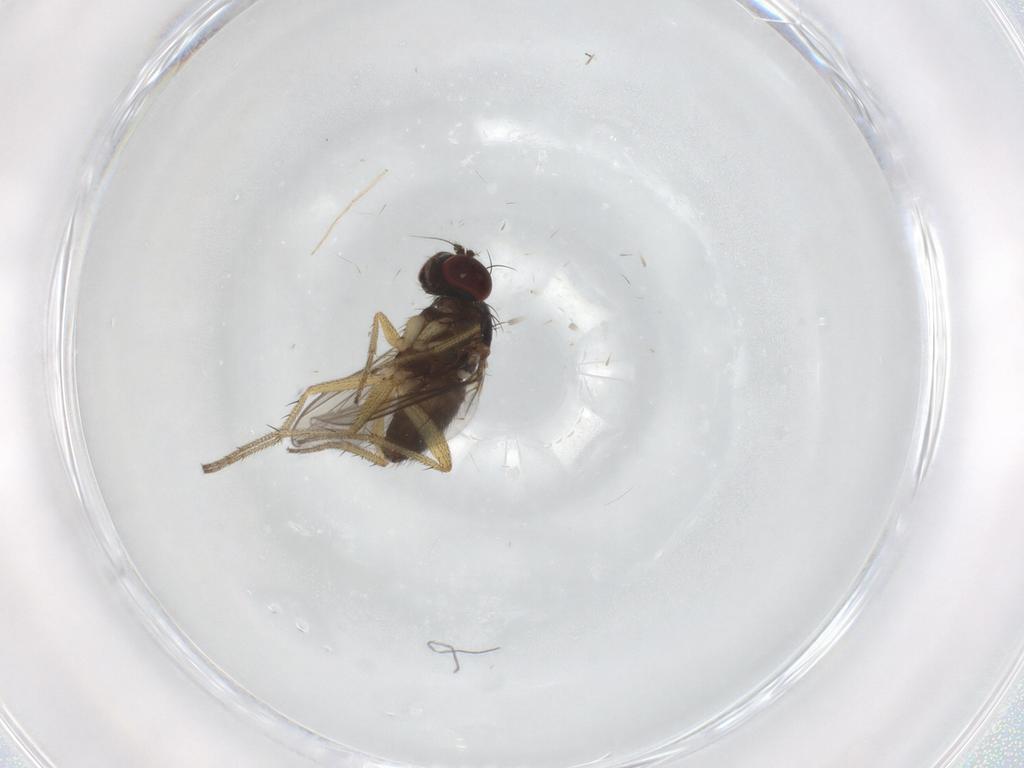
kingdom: Animalia
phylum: Arthropoda
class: Insecta
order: Diptera
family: Dolichopodidae
